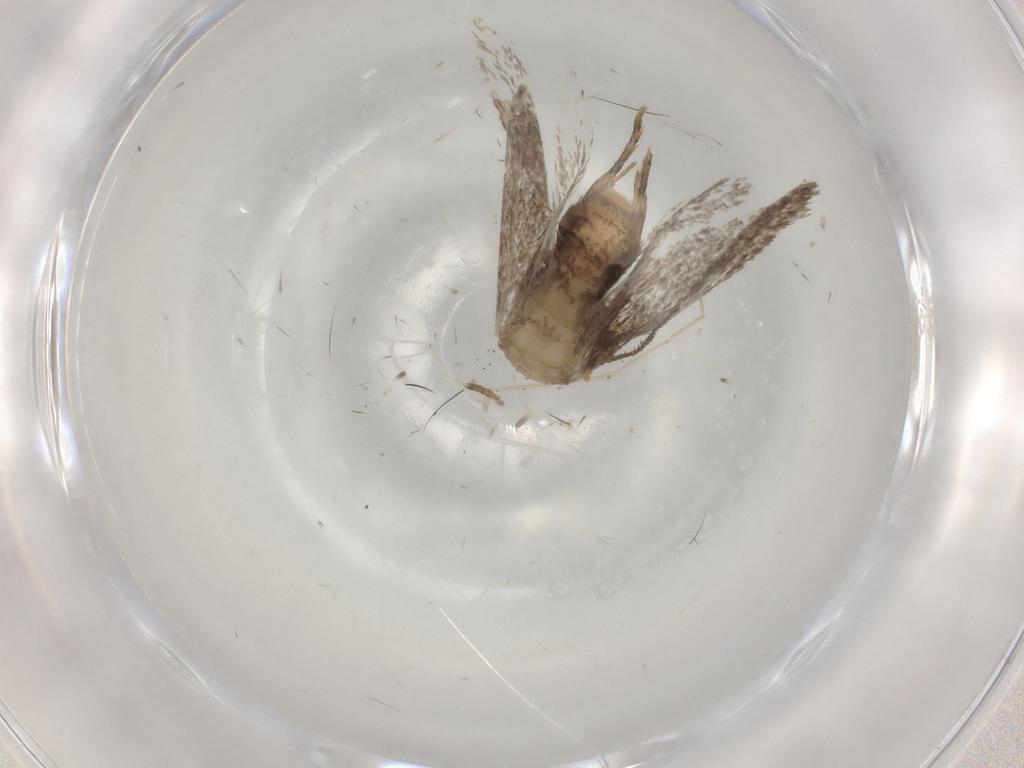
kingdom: Animalia
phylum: Arthropoda
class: Insecta
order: Lepidoptera
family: Dryadaulidae
